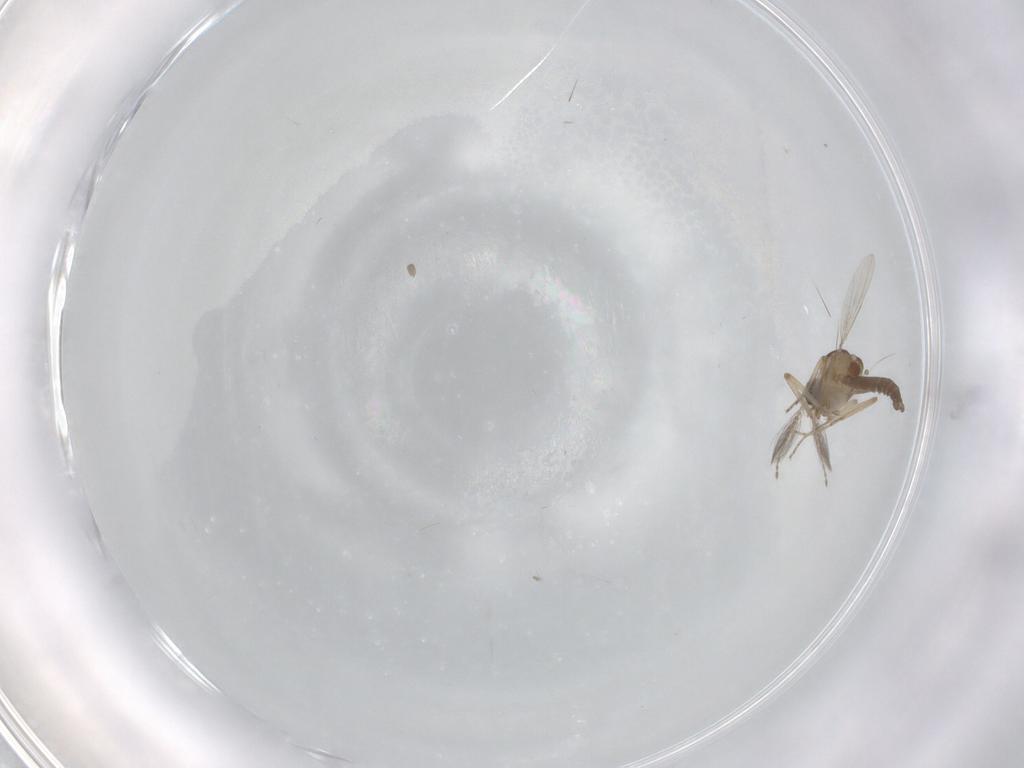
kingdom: Animalia
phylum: Arthropoda
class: Insecta
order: Diptera
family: Ceratopogonidae
